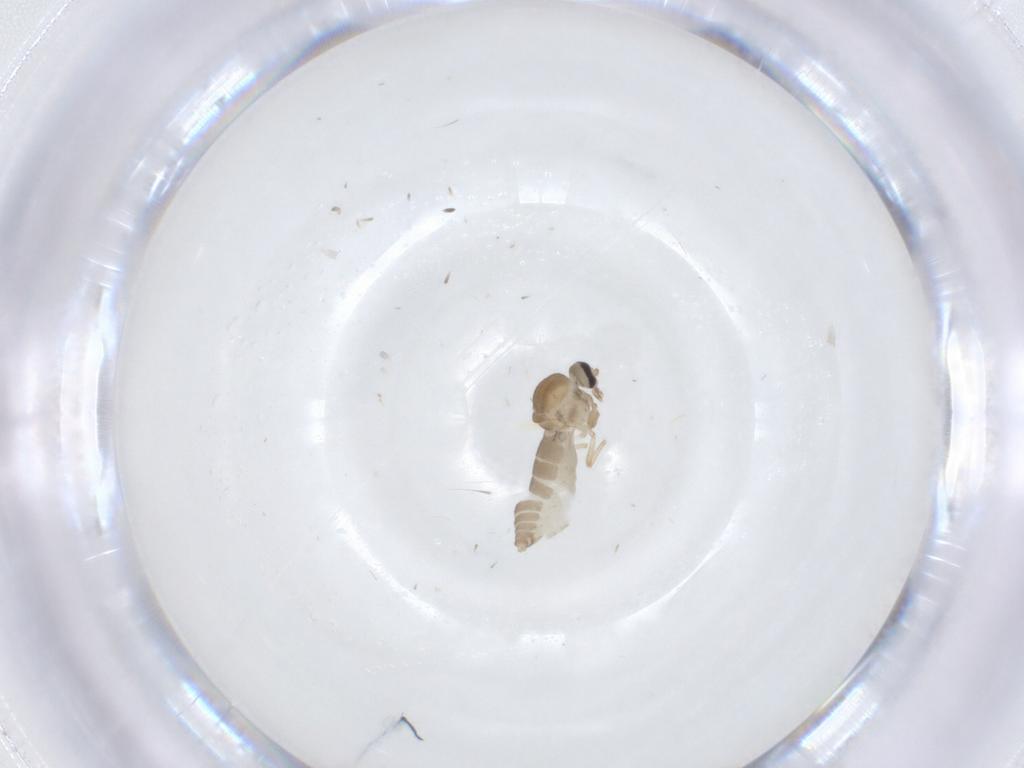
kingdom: Animalia
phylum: Arthropoda
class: Insecta
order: Diptera
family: Ceratopogonidae
